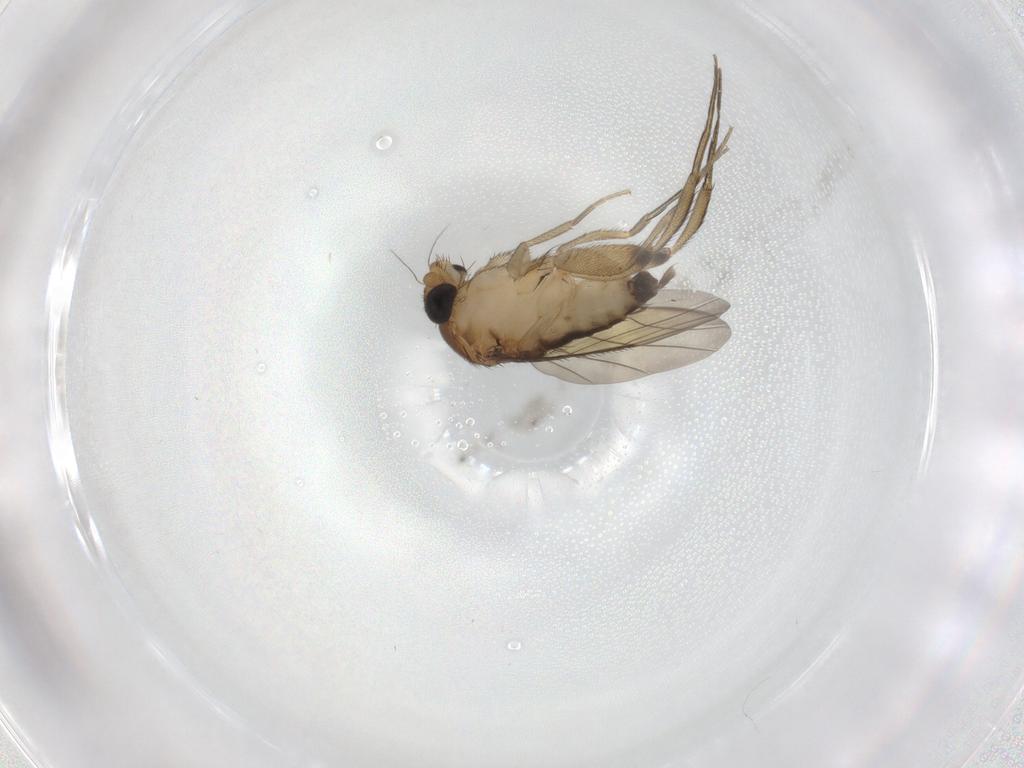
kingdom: Animalia
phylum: Arthropoda
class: Insecta
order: Diptera
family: Phoridae
